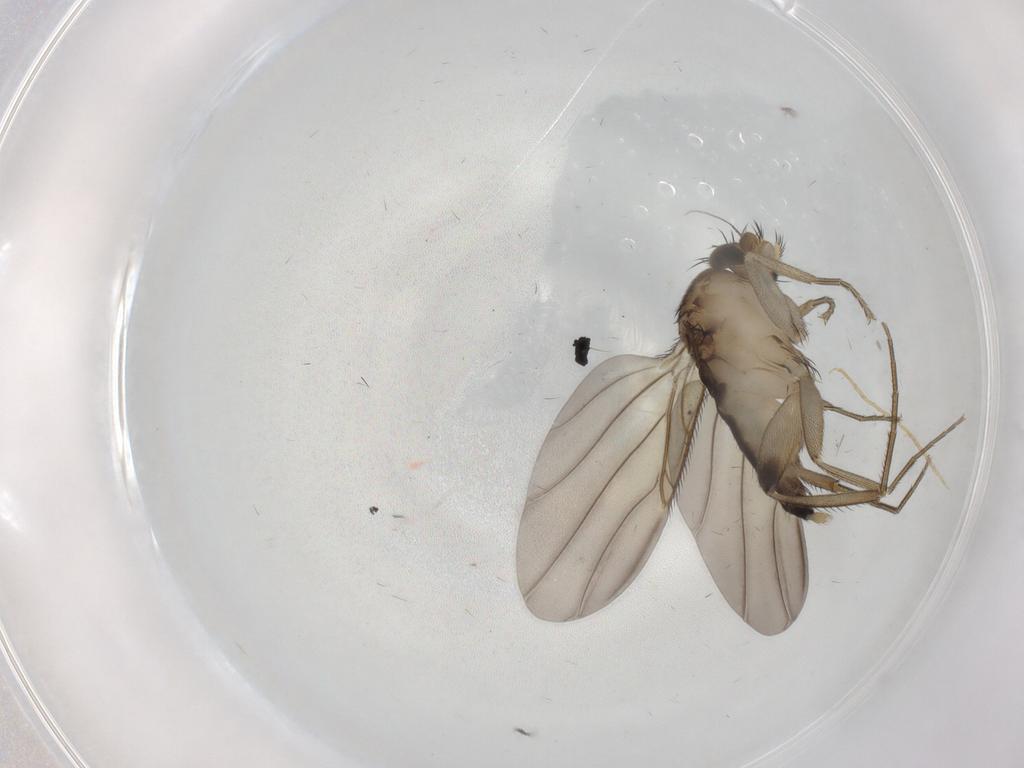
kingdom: Animalia
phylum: Arthropoda
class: Insecta
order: Diptera
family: Phoridae
